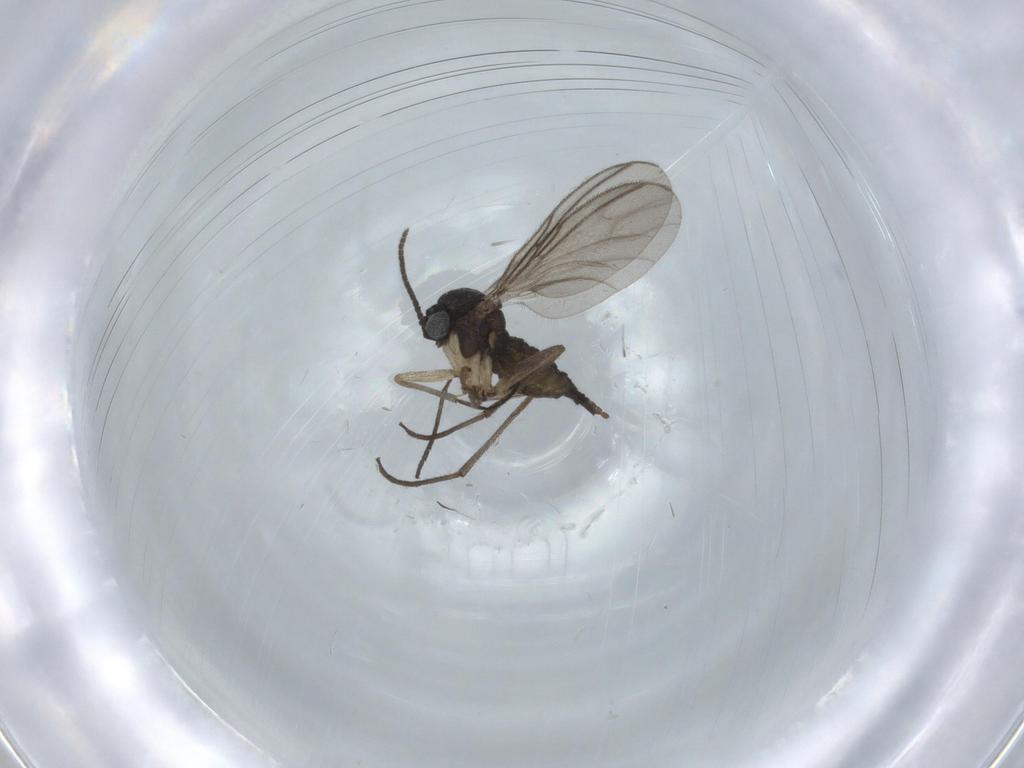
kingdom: Animalia
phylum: Arthropoda
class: Insecta
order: Diptera
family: Sciaridae
